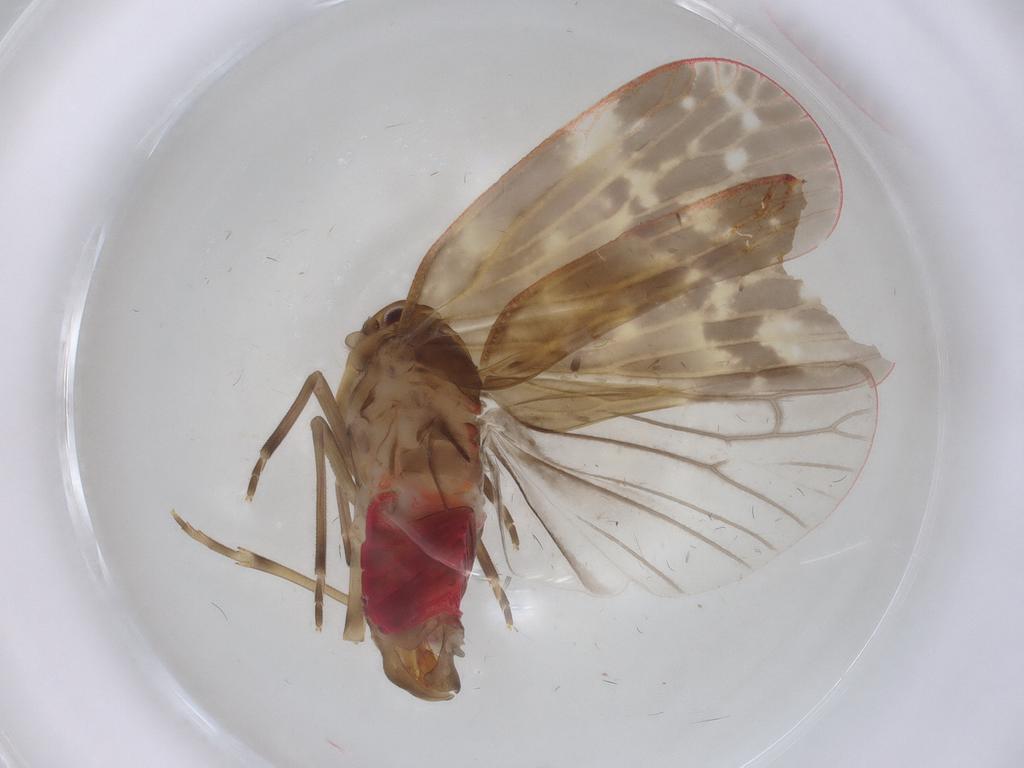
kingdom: Animalia
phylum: Arthropoda
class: Insecta
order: Hemiptera
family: Achilidae
